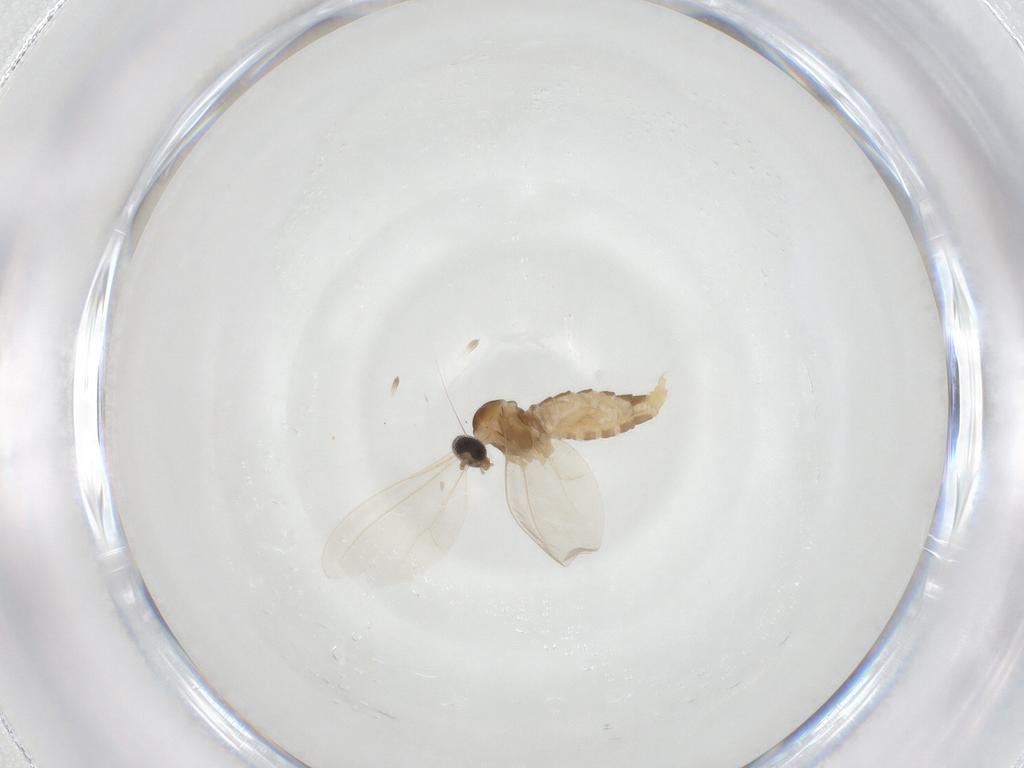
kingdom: Animalia
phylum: Arthropoda
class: Insecta
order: Diptera
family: Cecidomyiidae
